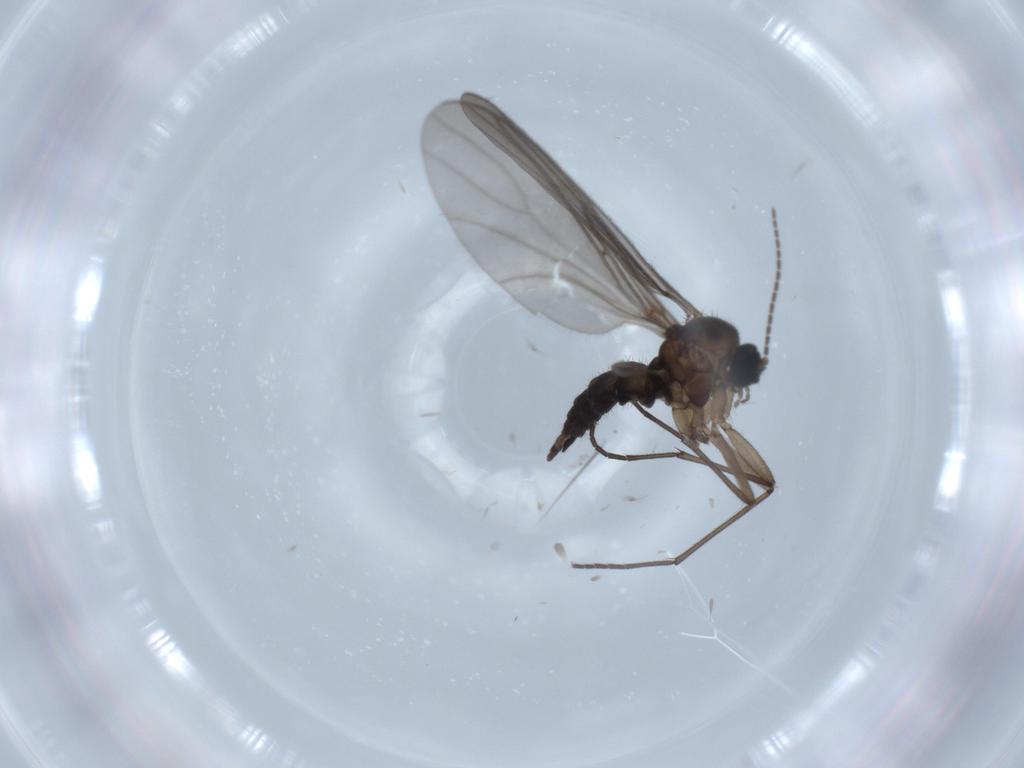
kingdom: Animalia
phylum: Arthropoda
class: Insecta
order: Diptera
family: Sciaridae
